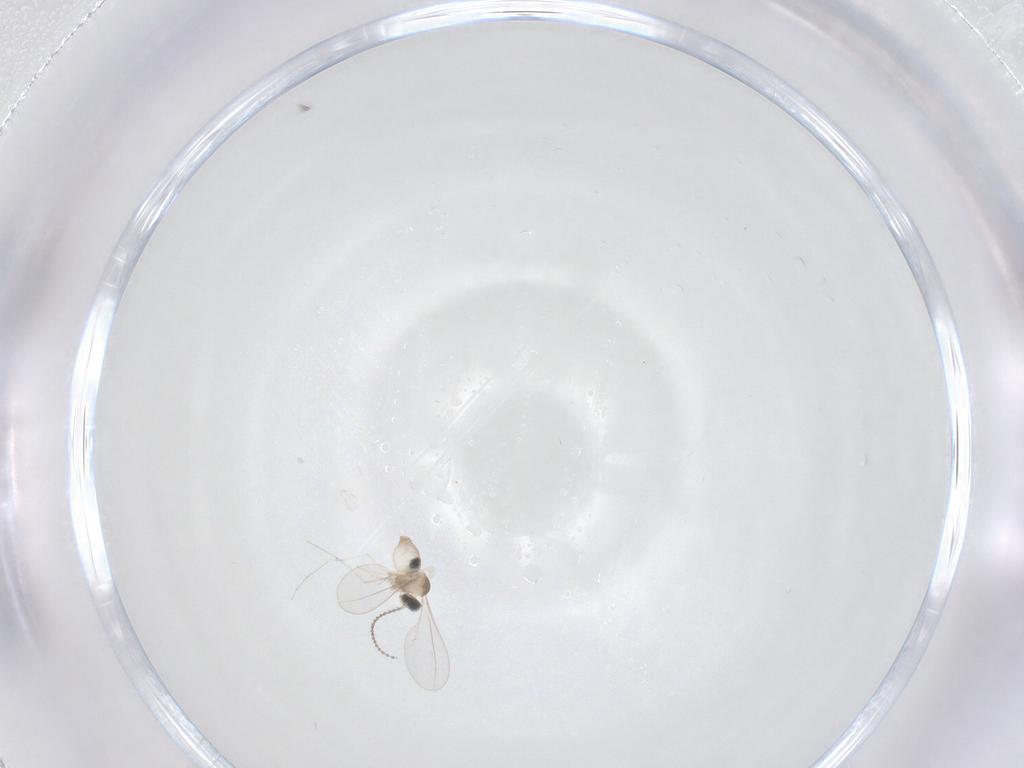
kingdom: Animalia
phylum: Arthropoda
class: Insecta
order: Diptera
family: Cecidomyiidae
